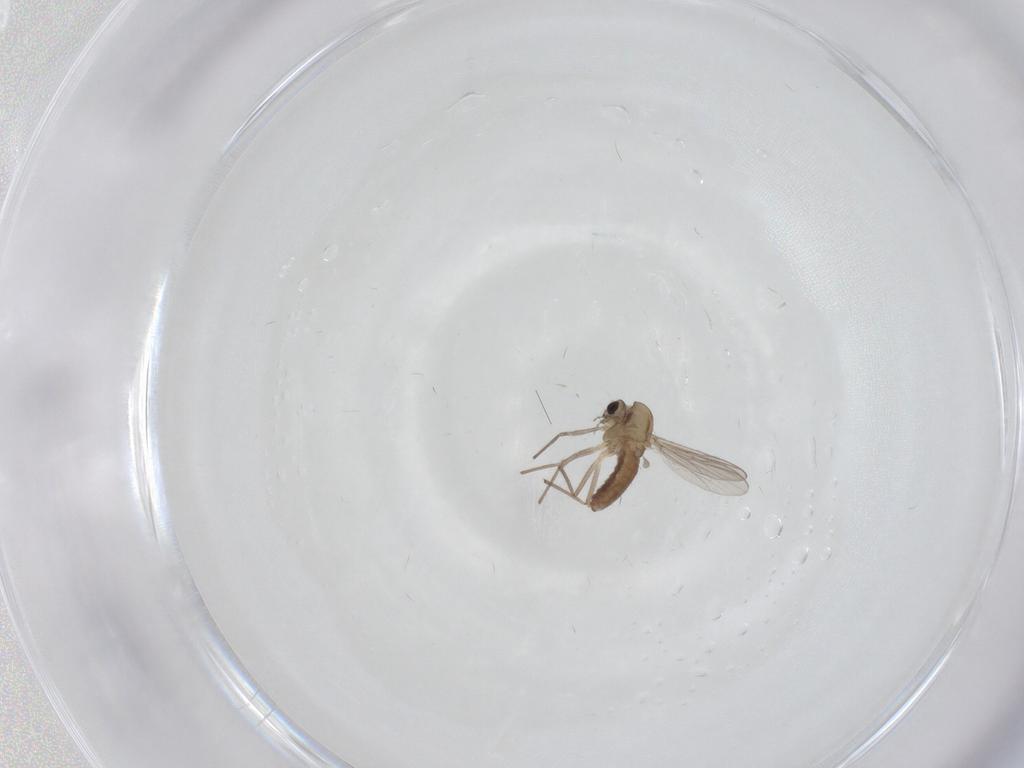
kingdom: Animalia
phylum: Arthropoda
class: Insecta
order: Diptera
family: Chironomidae
